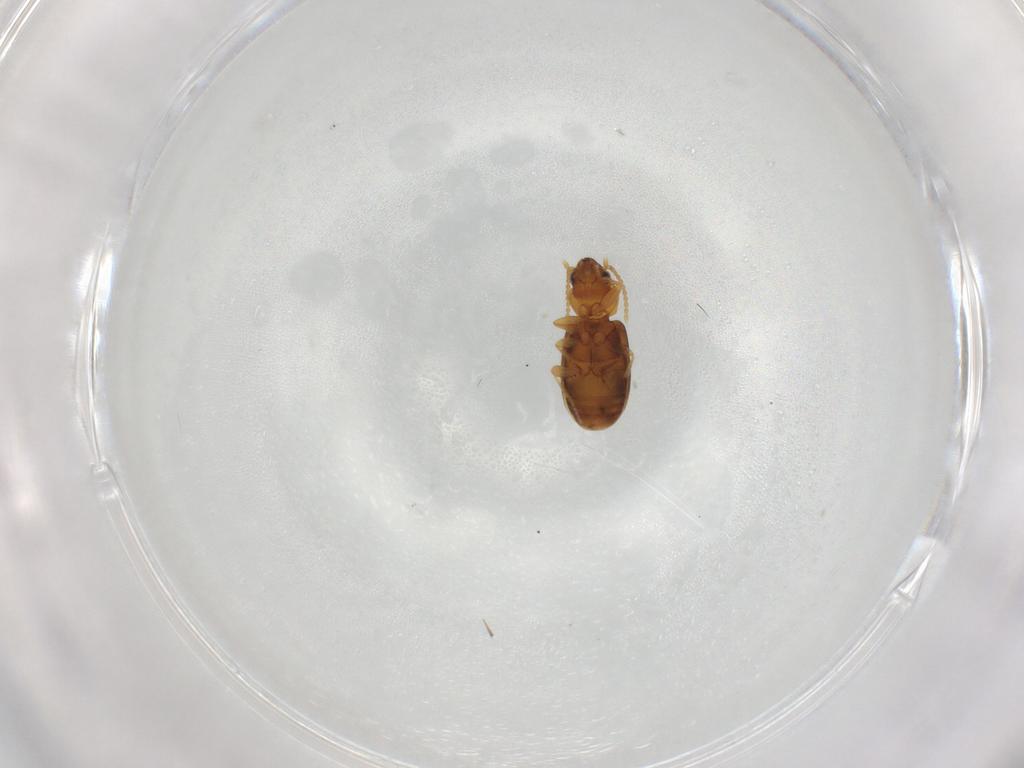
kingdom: Animalia
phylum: Arthropoda
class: Insecta
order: Coleoptera
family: Carabidae
